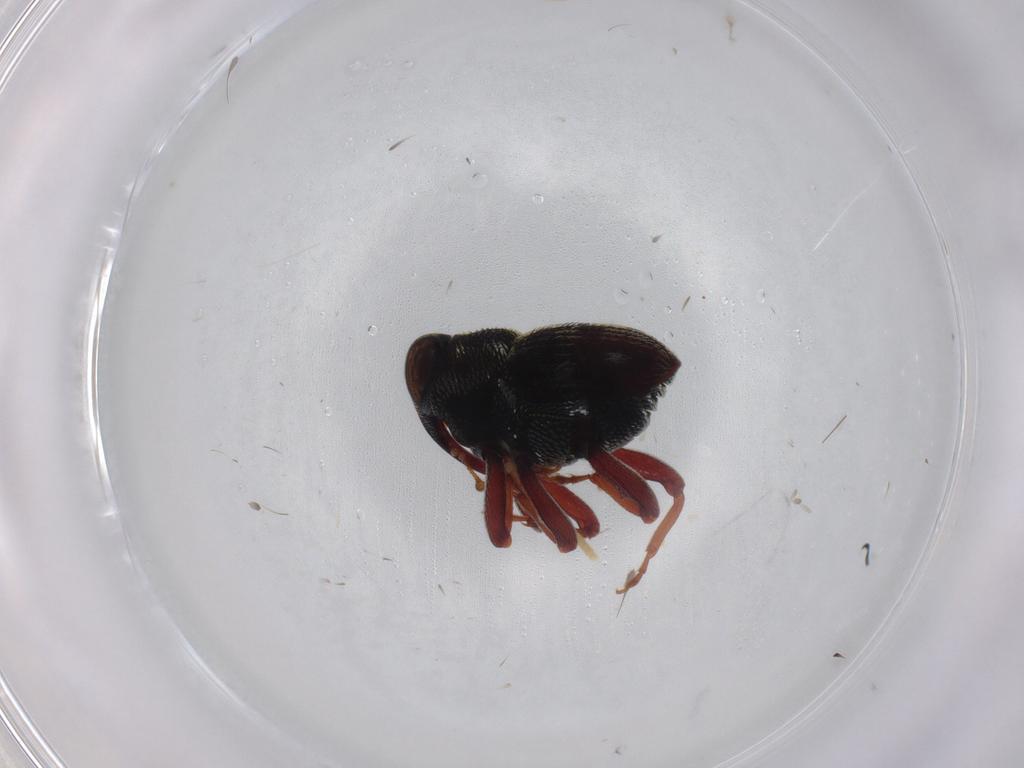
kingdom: Animalia
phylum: Arthropoda
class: Insecta
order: Coleoptera
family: Curculionidae
